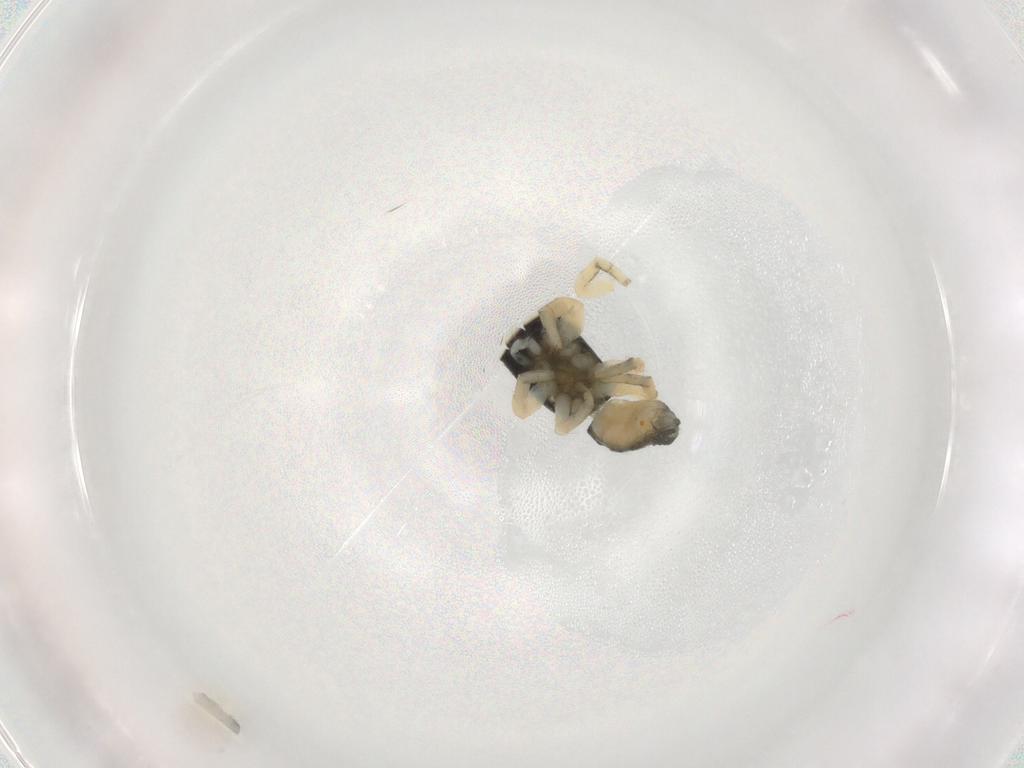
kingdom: Animalia
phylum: Arthropoda
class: Arachnida
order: Araneae
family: Salticidae
